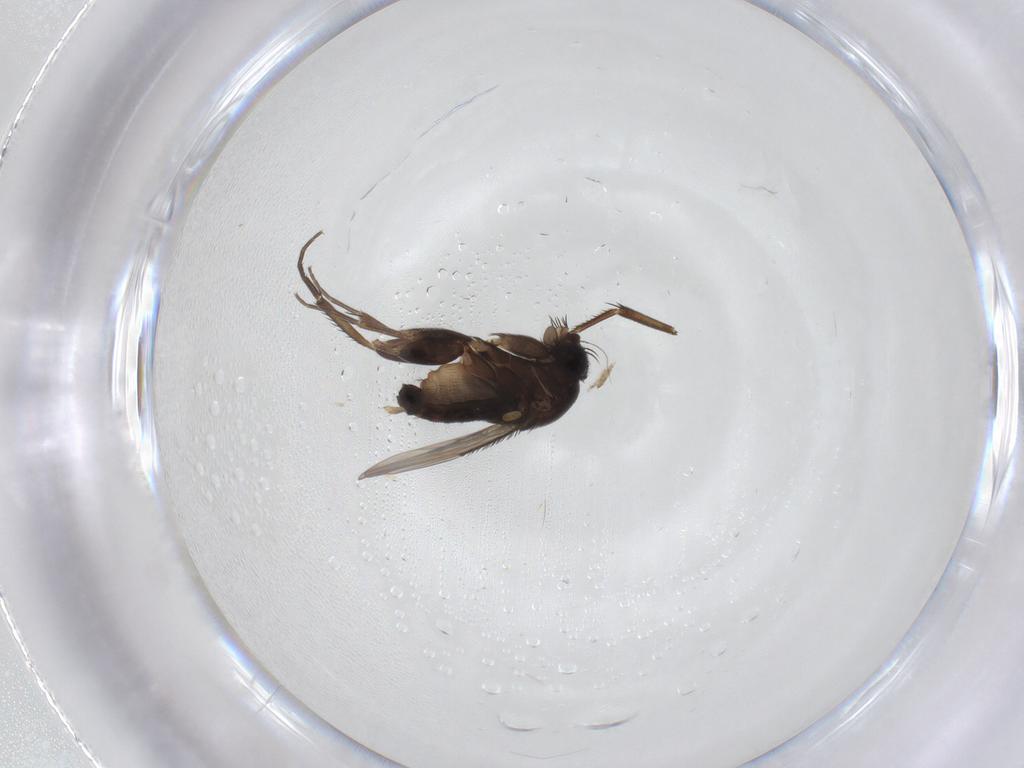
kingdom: Animalia
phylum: Arthropoda
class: Insecta
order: Diptera
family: Phoridae
